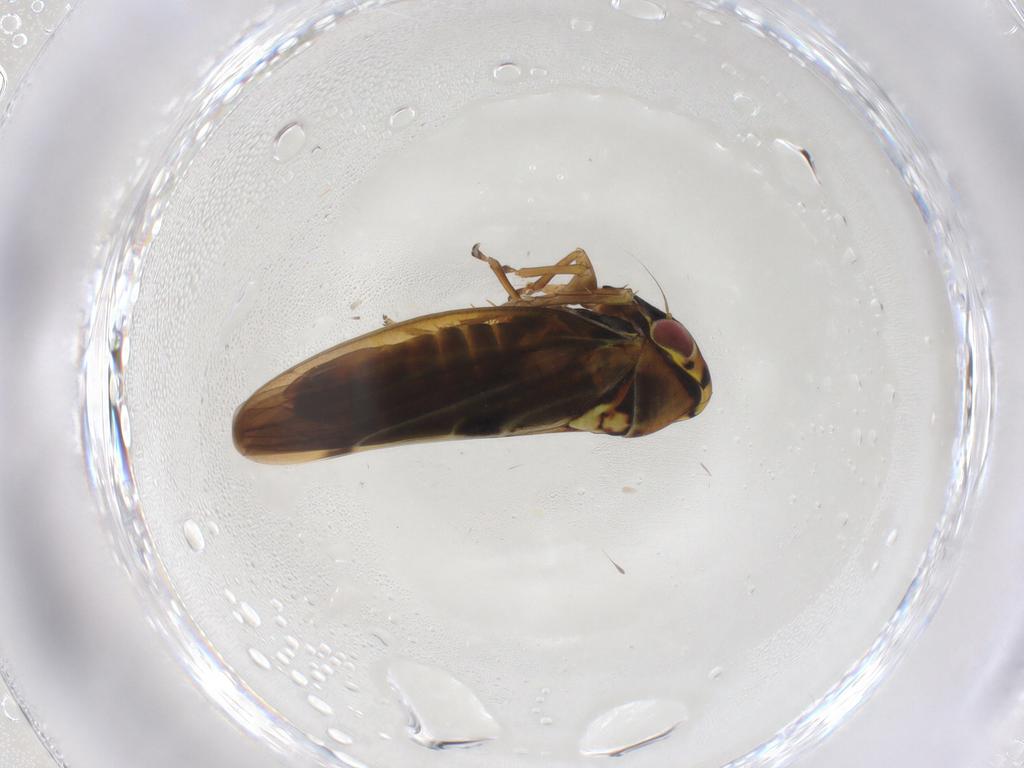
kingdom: Animalia
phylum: Arthropoda
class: Insecta
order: Hemiptera
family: Cicadellidae
